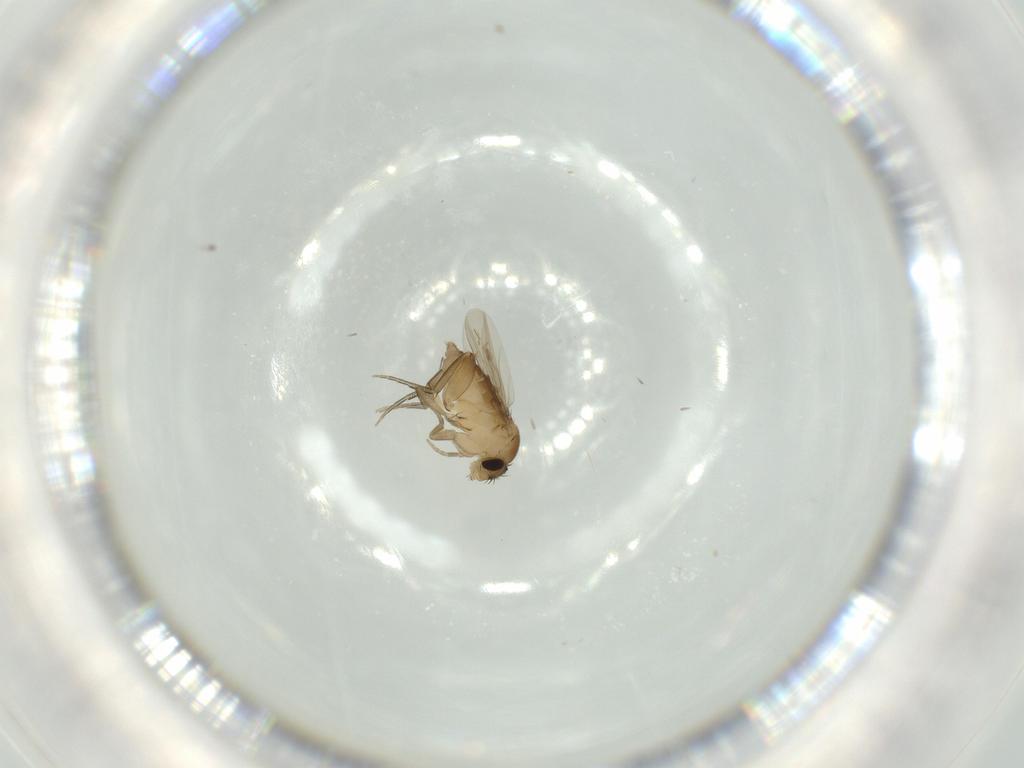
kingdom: Animalia
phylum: Arthropoda
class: Insecta
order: Diptera
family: Phoridae
